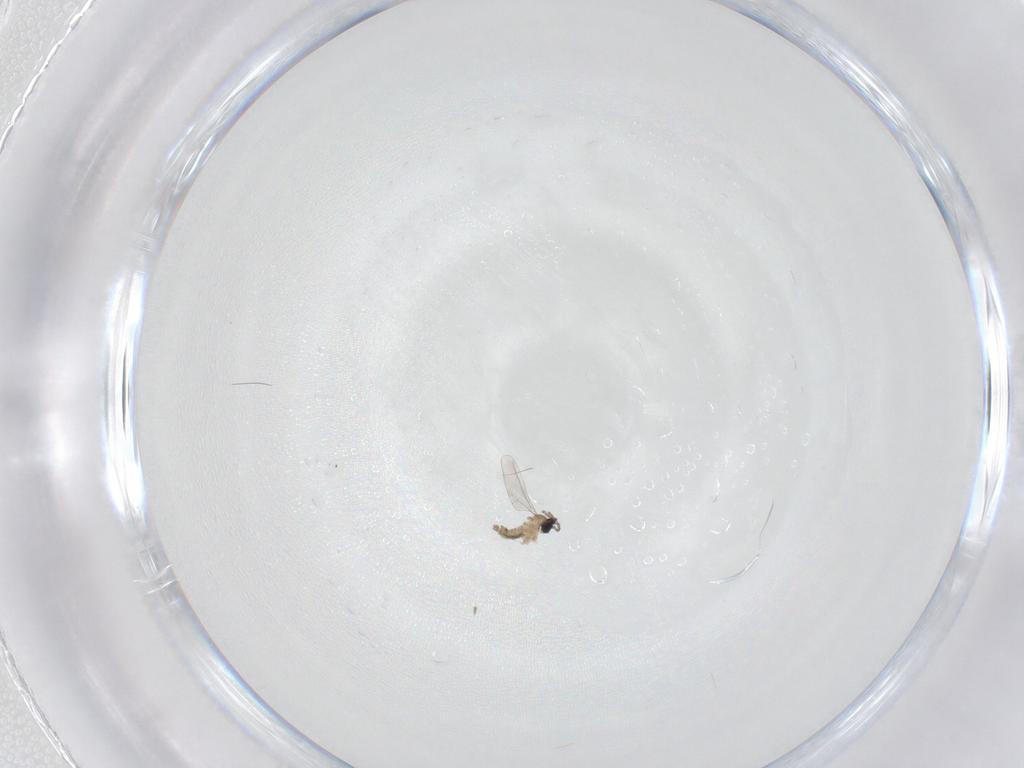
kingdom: Animalia
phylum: Arthropoda
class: Insecta
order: Diptera
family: Cecidomyiidae
